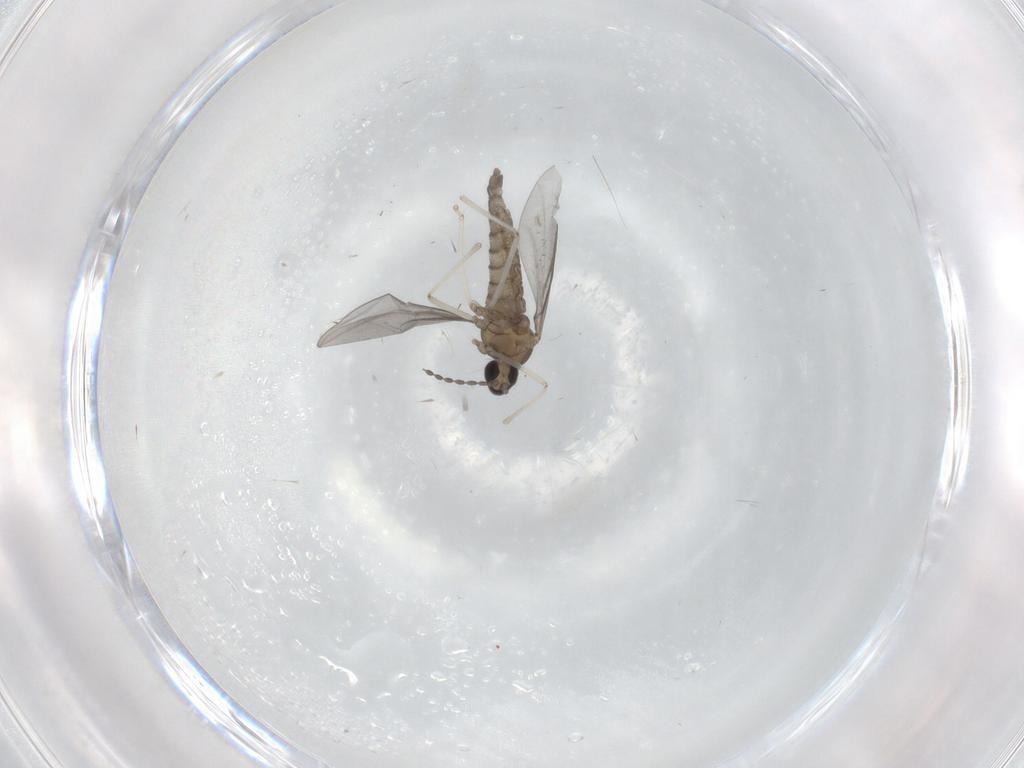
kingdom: Animalia
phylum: Arthropoda
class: Insecta
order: Diptera
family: Cecidomyiidae
